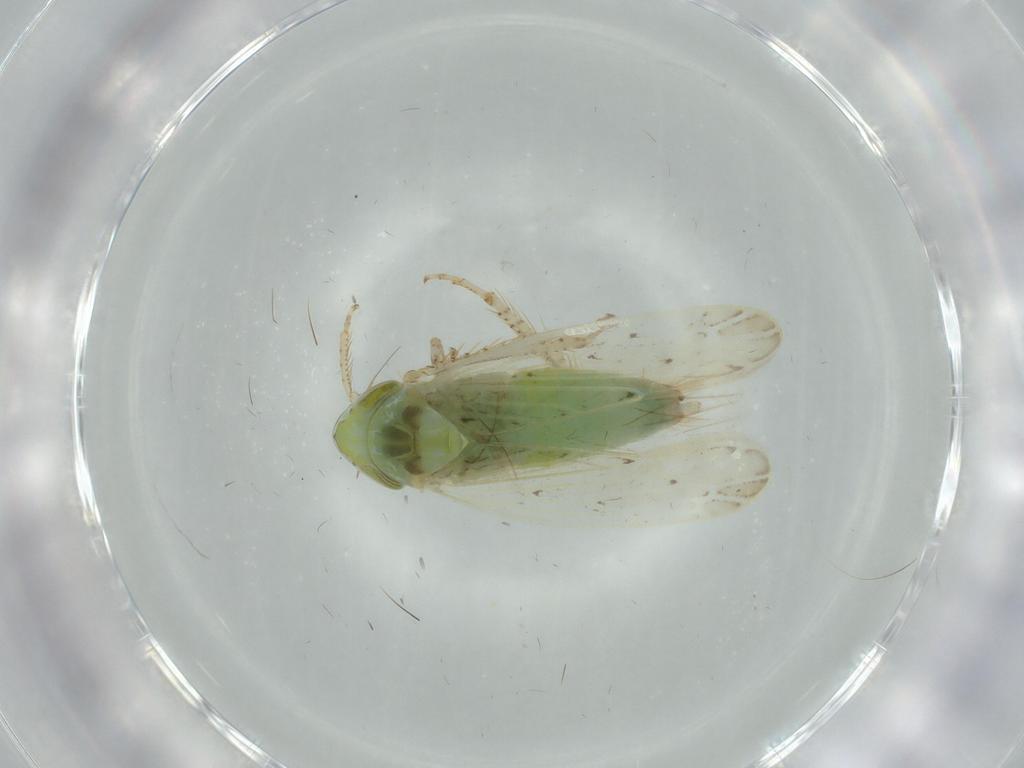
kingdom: Animalia
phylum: Arthropoda
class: Insecta
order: Hemiptera
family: Cicadellidae
